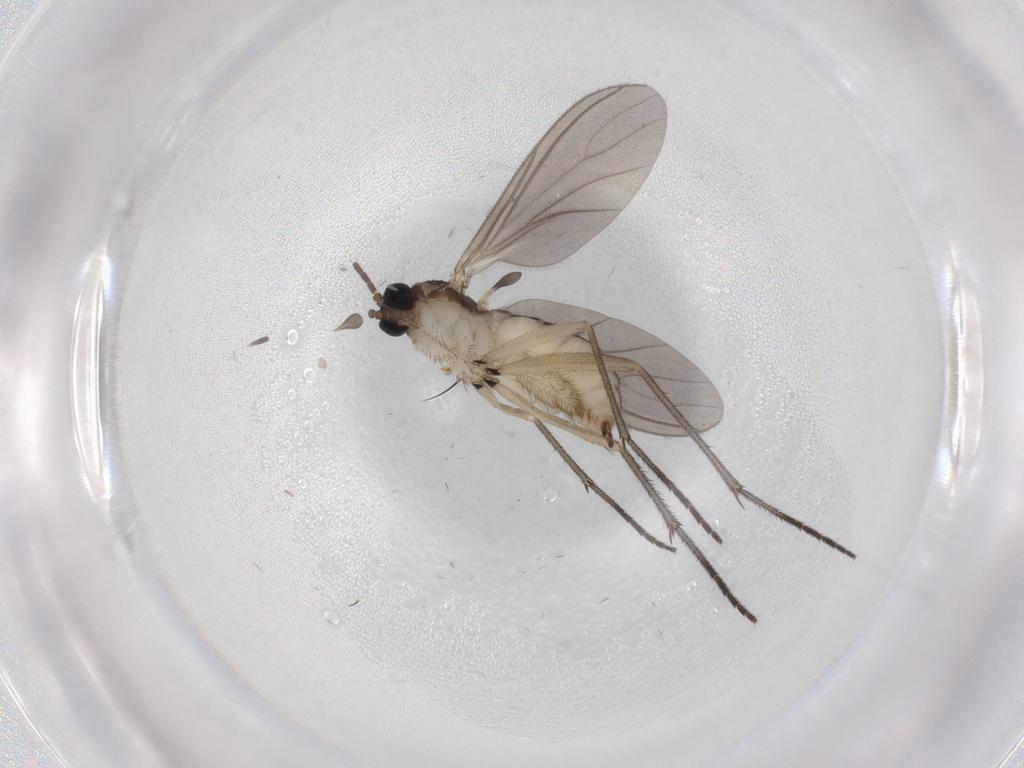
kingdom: Animalia
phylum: Arthropoda
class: Insecta
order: Diptera
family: Sciaridae
